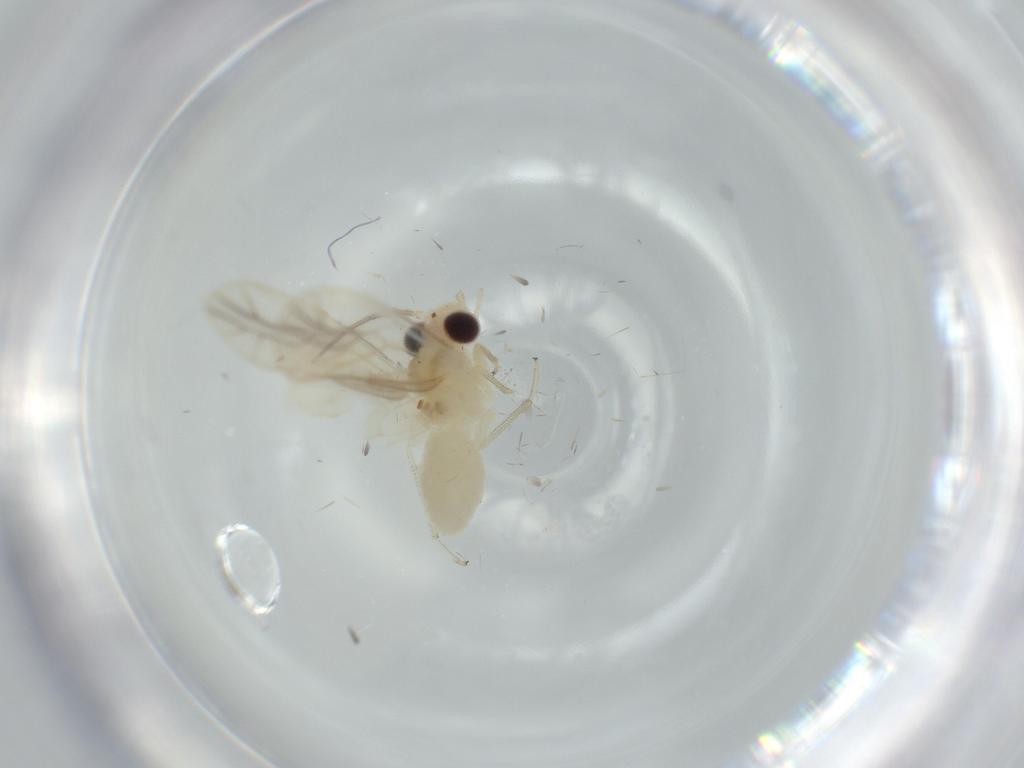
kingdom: Animalia
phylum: Arthropoda
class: Insecta
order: Psocodea
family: Caeciliusidae
